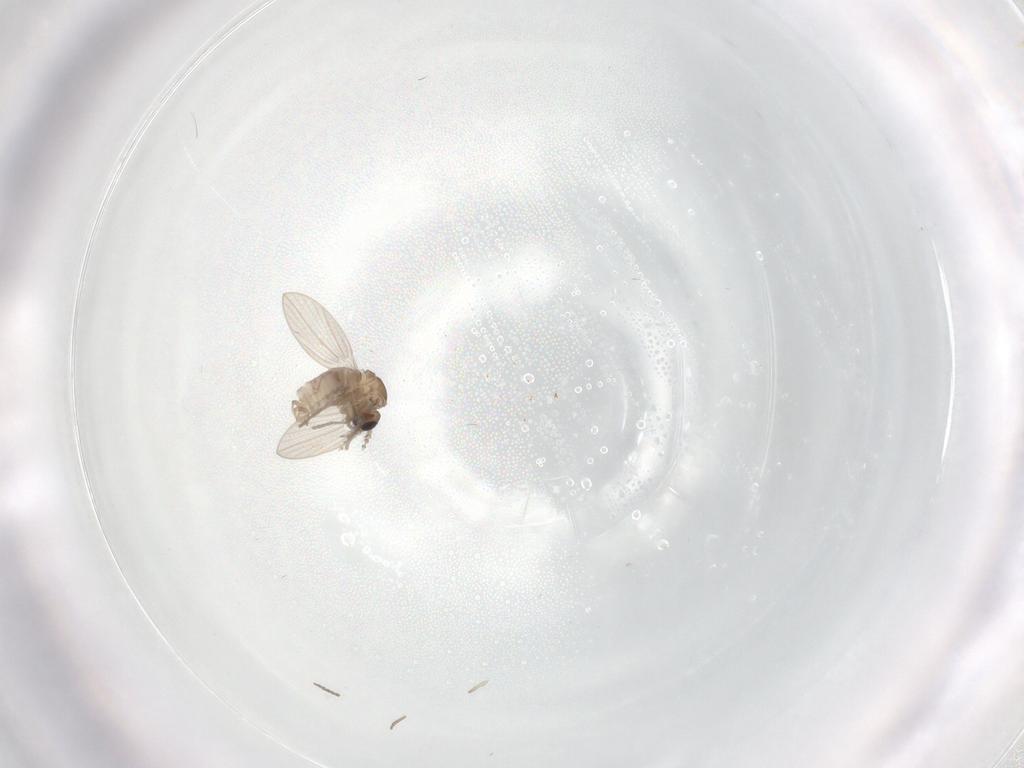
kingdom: Animalia
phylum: Arthropoda
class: Insecta
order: Diptera
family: Psychodidae
